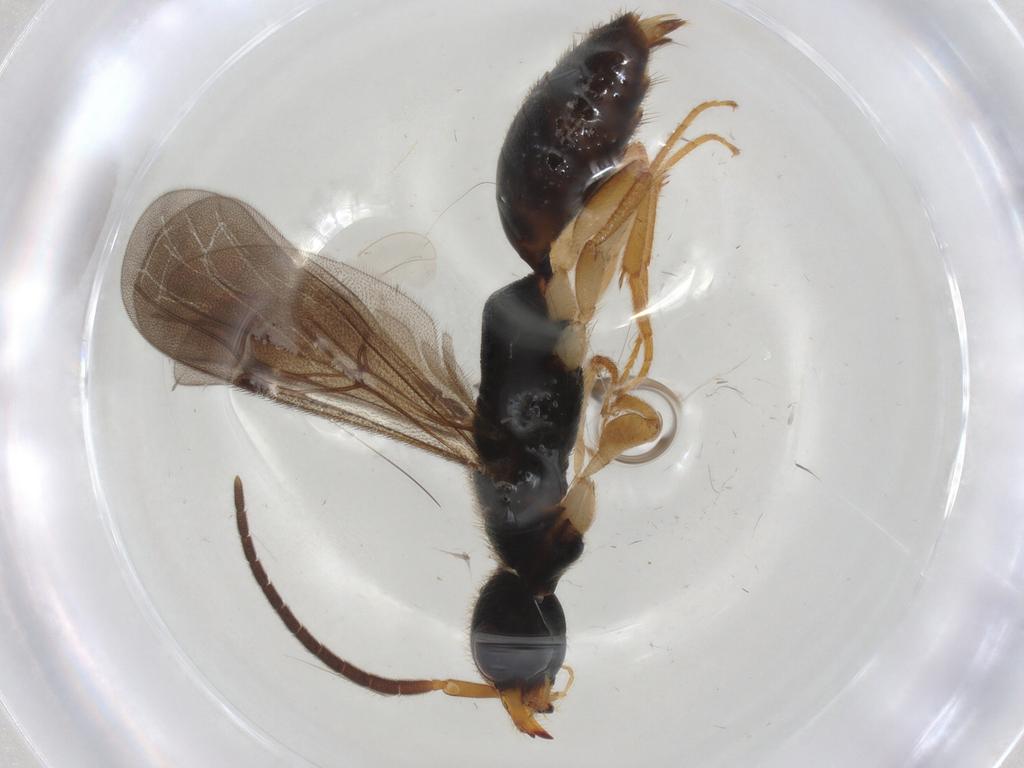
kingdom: Animalia
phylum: Arthropoda
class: Insecta
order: Hymenoptera
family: Bethylidae
